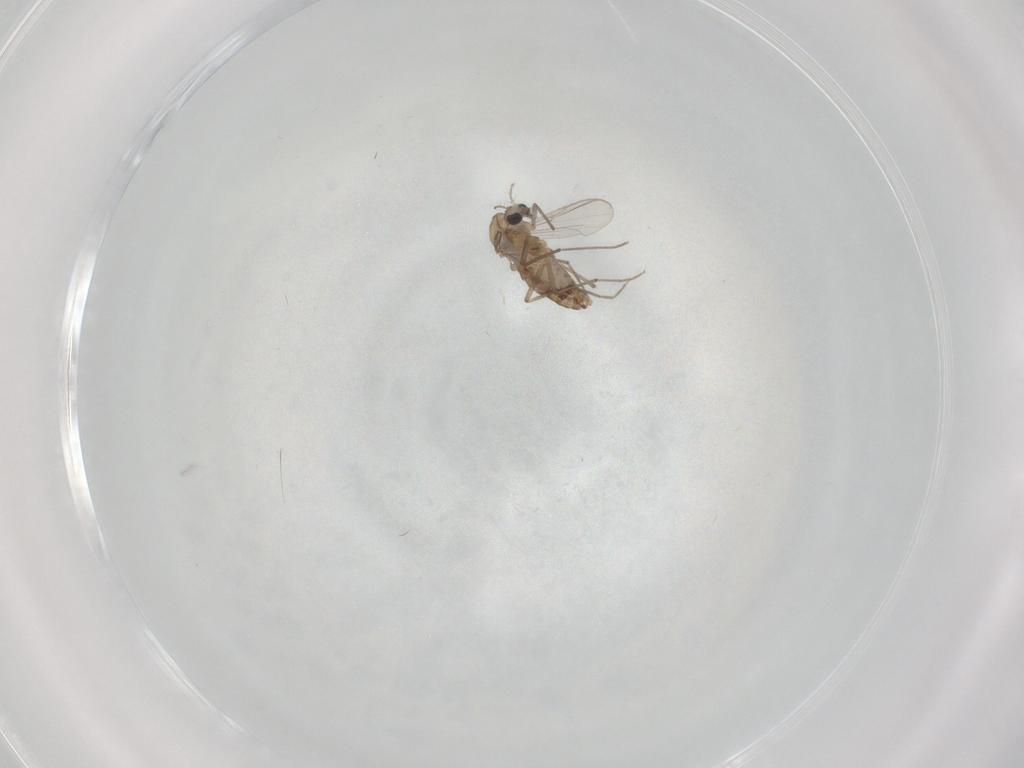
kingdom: Animalia
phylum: Arthropoda
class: Insecta
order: Diptera
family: Chironomidae
